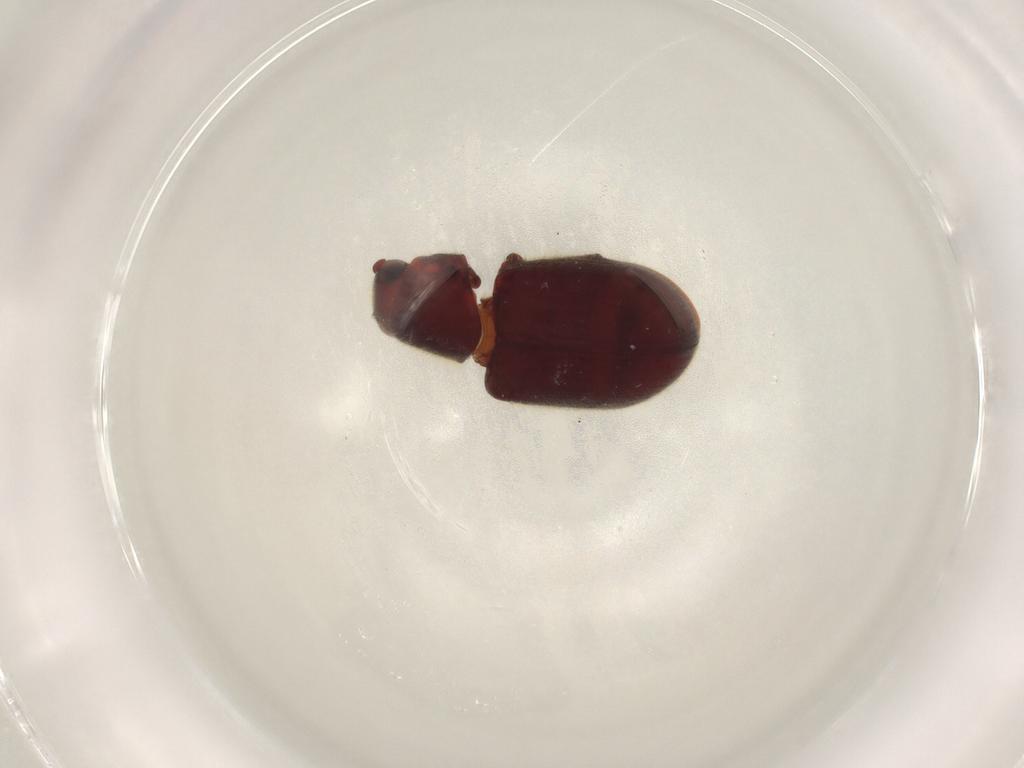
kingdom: Animalia
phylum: Arthropoda
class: Insecta
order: Coleoptera
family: Ptinidae
